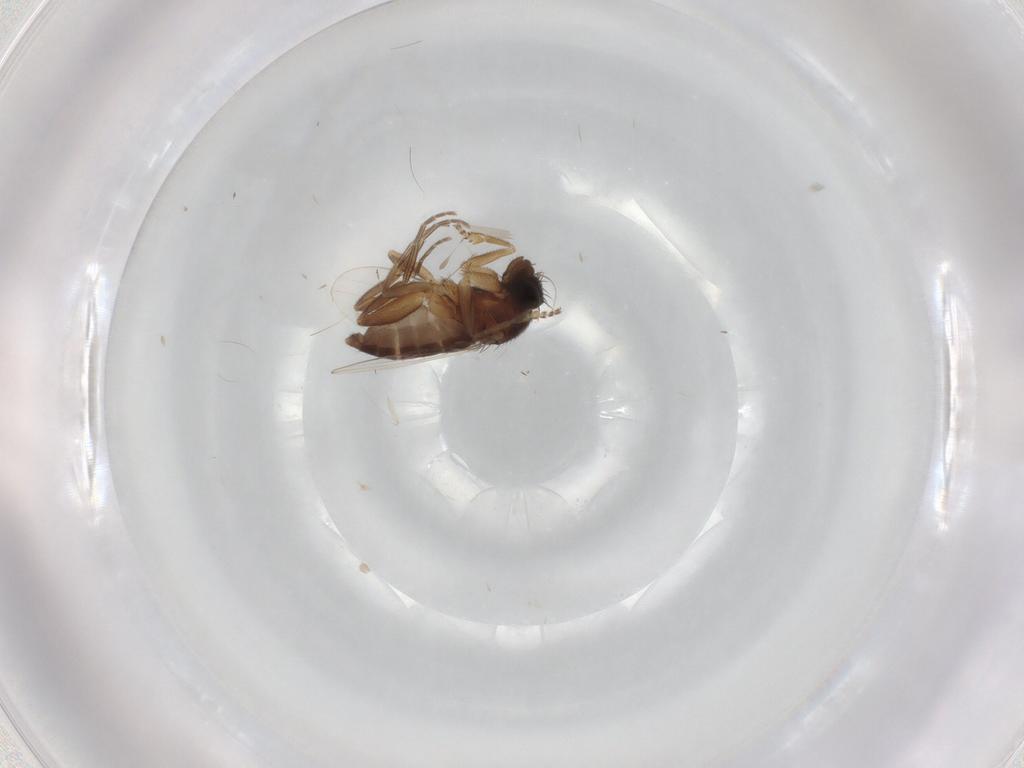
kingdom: Animalia
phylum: Arthropoda
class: Insecta
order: Diptera
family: Phoridae
